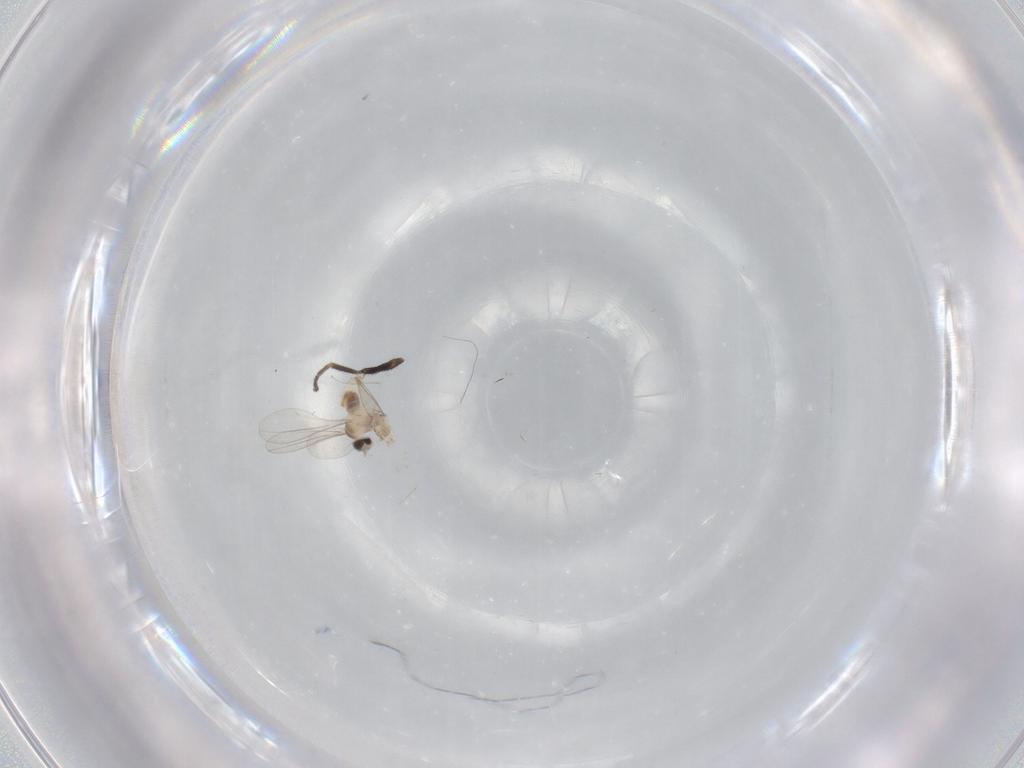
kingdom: Animalia
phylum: Arthropoda
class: Insecta
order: Diptera
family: Cecidomyiidae
